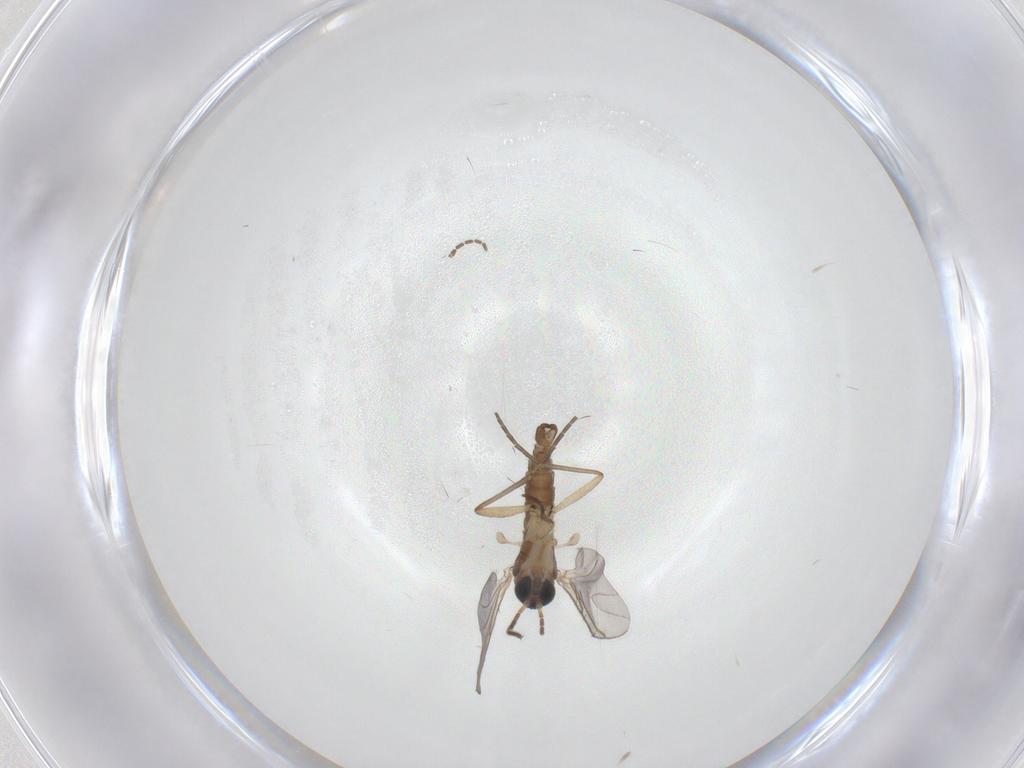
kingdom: Animalia
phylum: Arthropoda
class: Insecta
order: Diptera
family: Sciaridae
